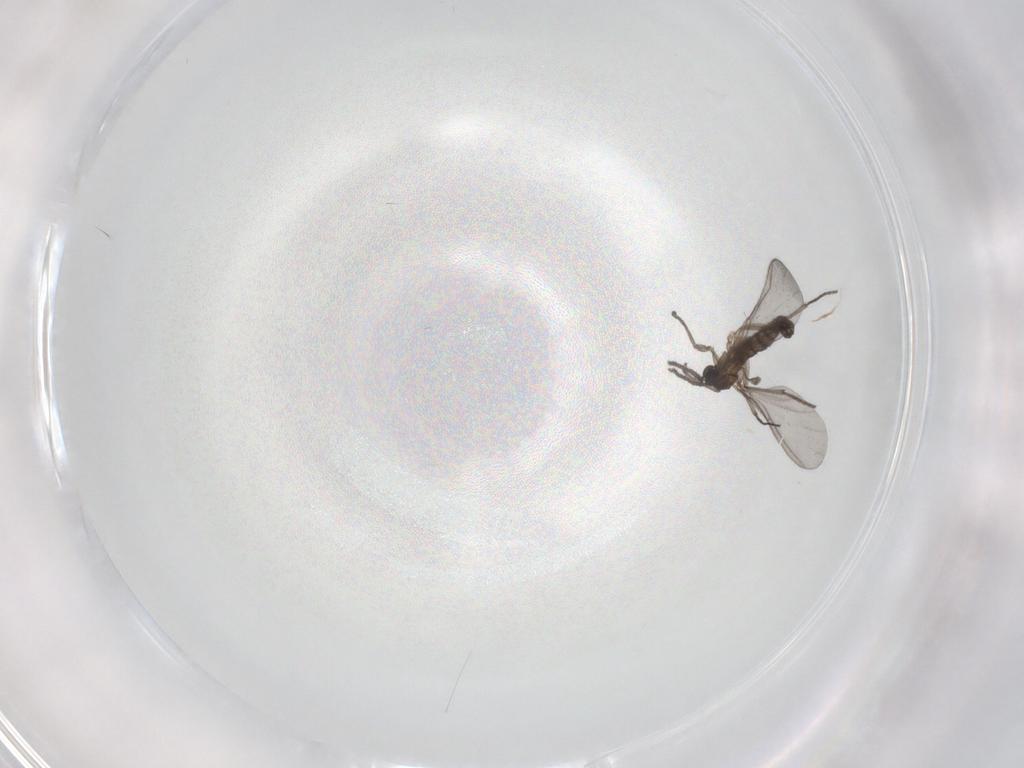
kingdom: Animalia
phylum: Arthropoda
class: Insecta
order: Diptera
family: Sciaridae
